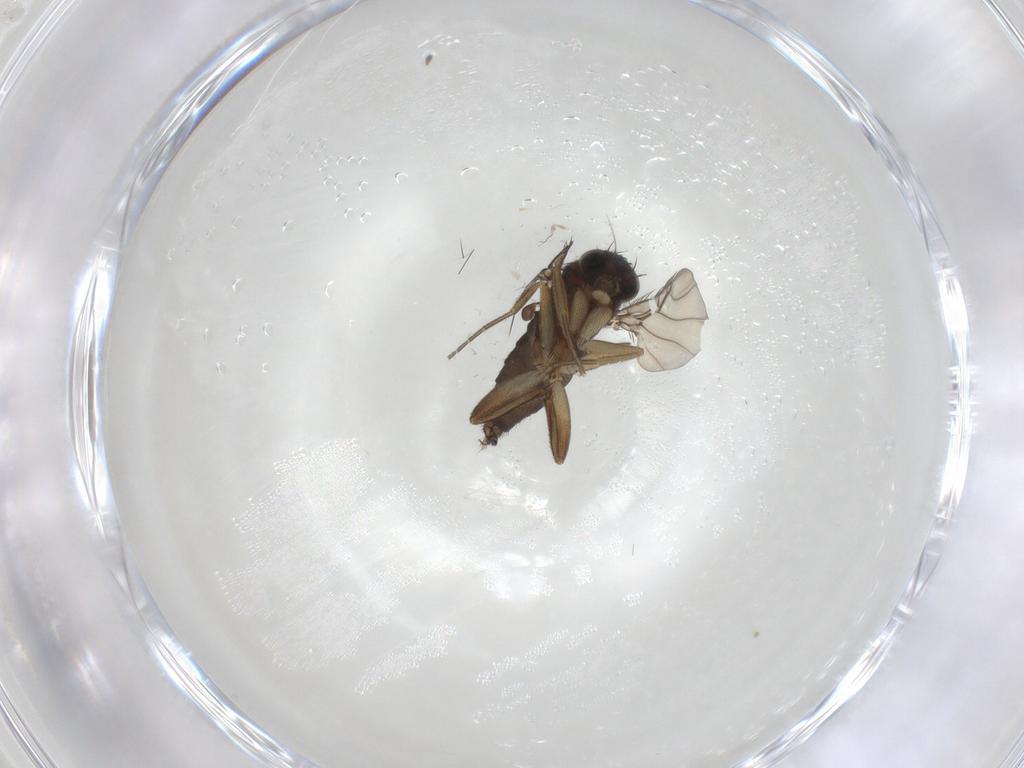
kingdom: Animalia
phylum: Arthropoda
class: Insecta
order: Diptera
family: Phoridae
